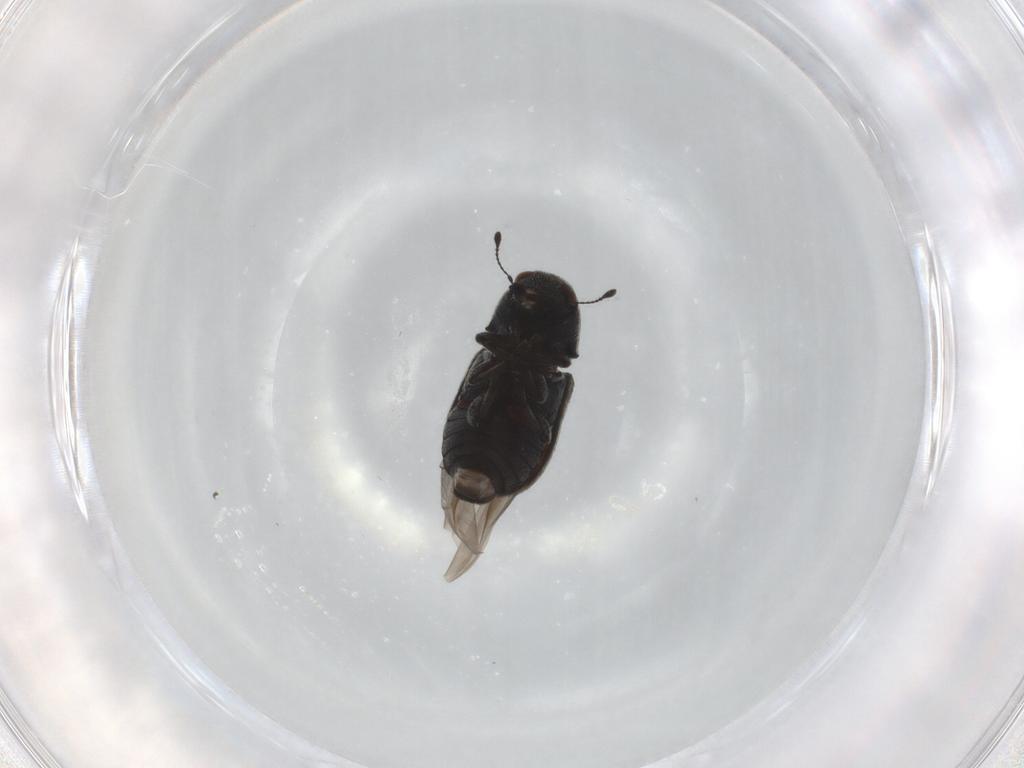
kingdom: Animalia
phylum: Arthropoda
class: Insecta
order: Coleoptera
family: Cerambycidae
